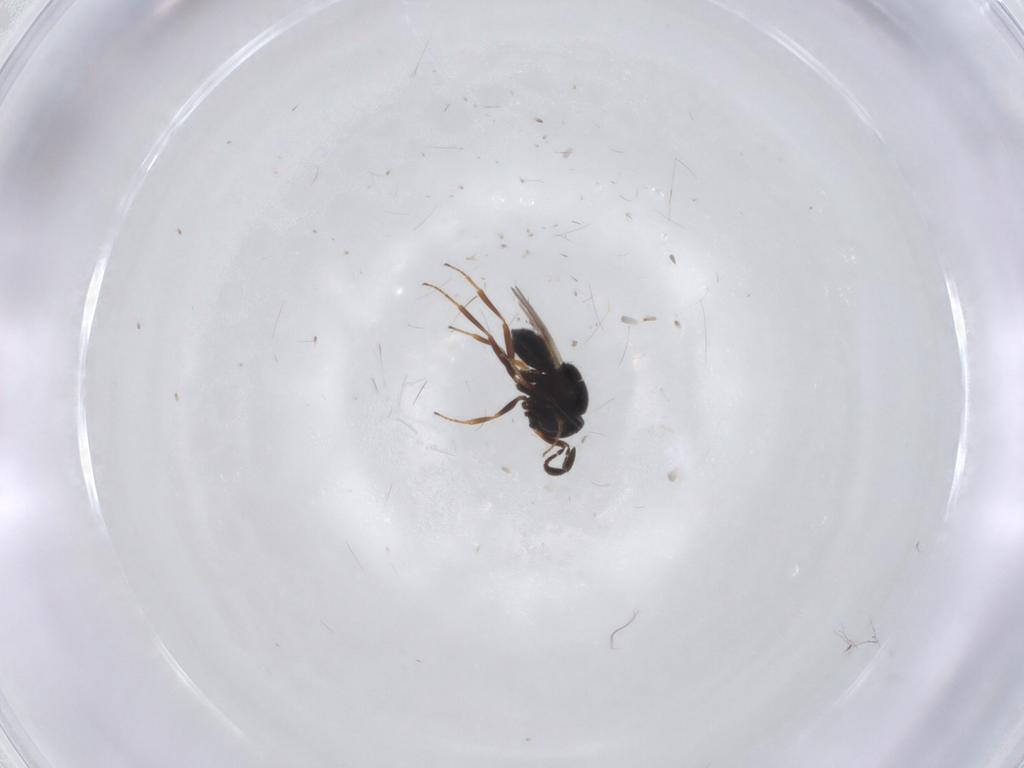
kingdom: Animalia
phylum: Arthropoda
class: Insecta
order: Hymenoptera
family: Scelionidae
